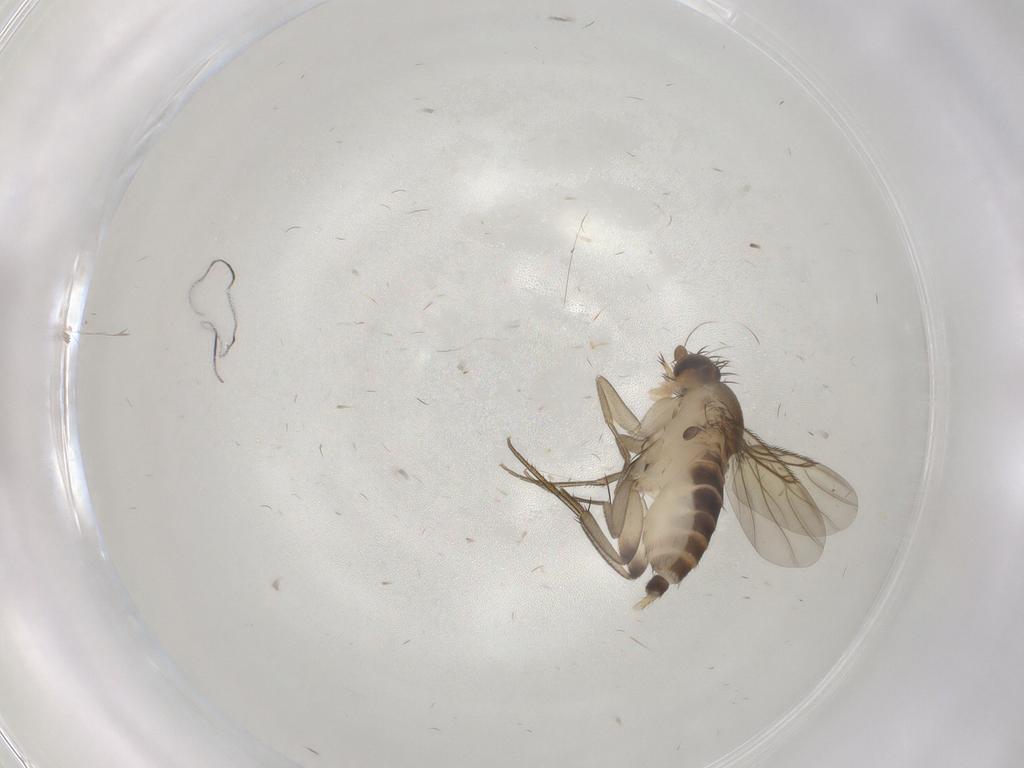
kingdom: Animalia
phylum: Arthropoda
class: Insecta
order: Diptera
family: Phoridae
